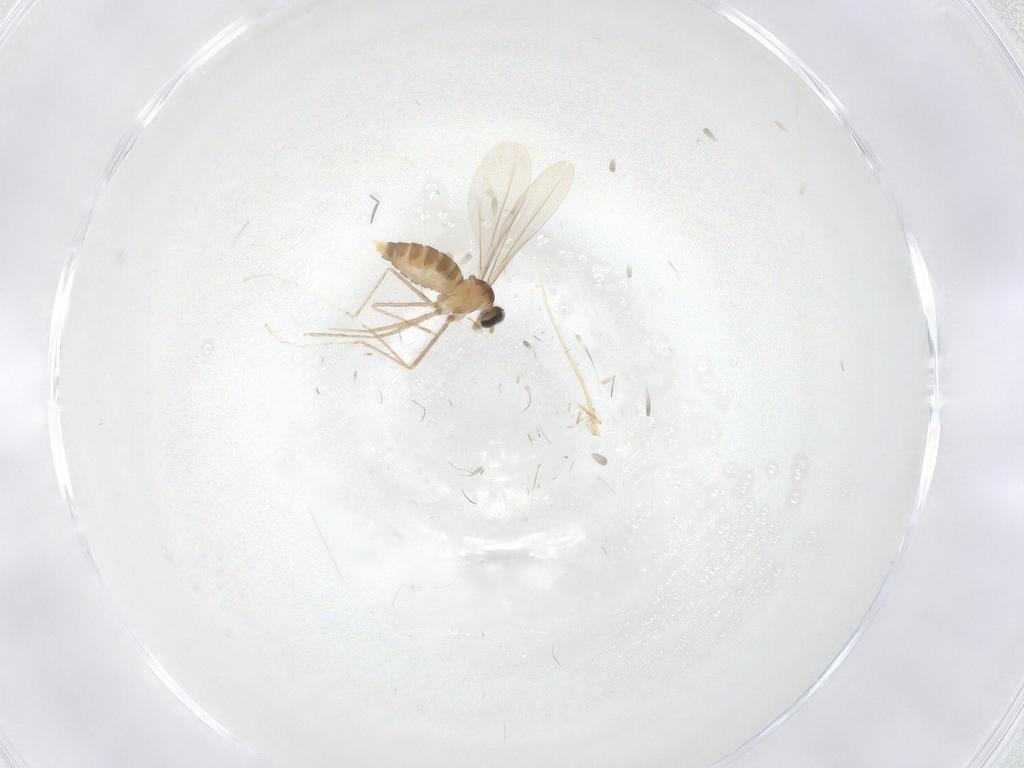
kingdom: Animalia
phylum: Arthropoda
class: Insecta
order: Diptera
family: Cecidomyiidae
